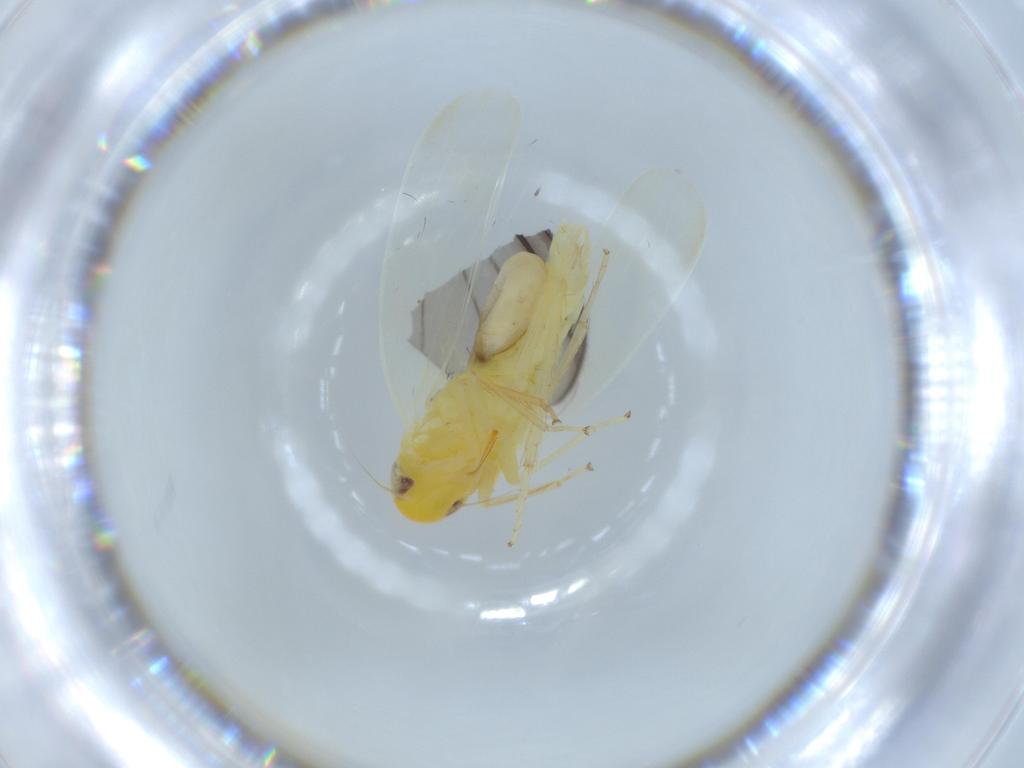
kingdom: Animalia
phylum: Arthropoda
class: Insecta
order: Hemiptera
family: Cicadellidae
